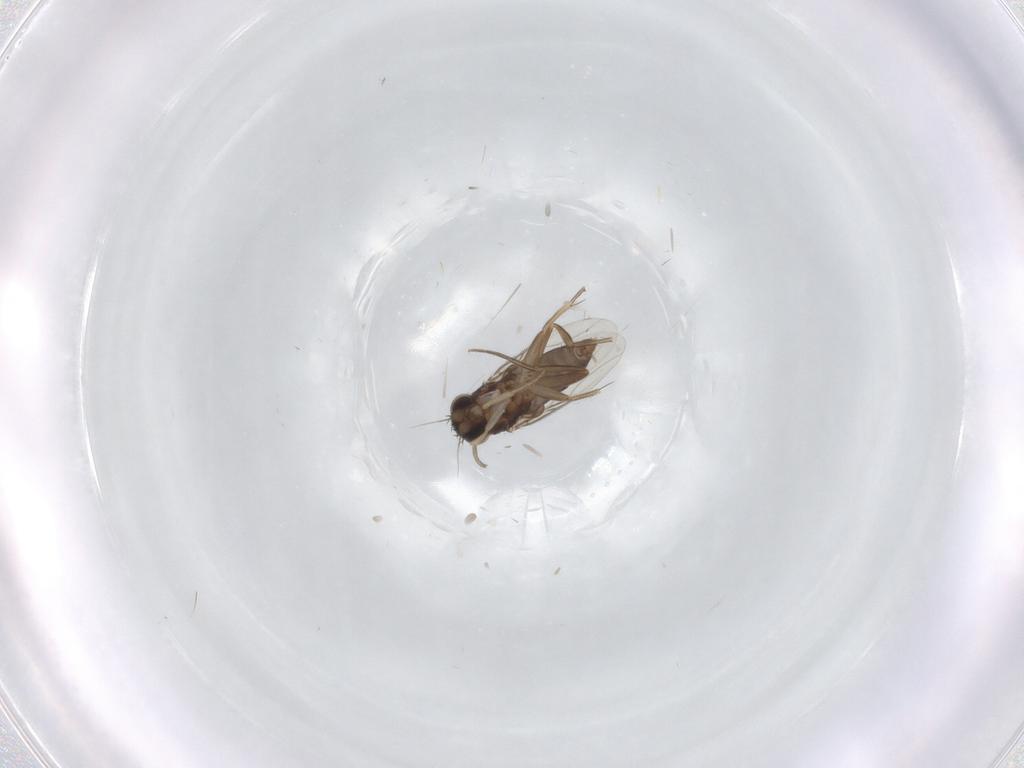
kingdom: Animalia
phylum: Arthropoda
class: Insecta
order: Diptera
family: Phoridae
